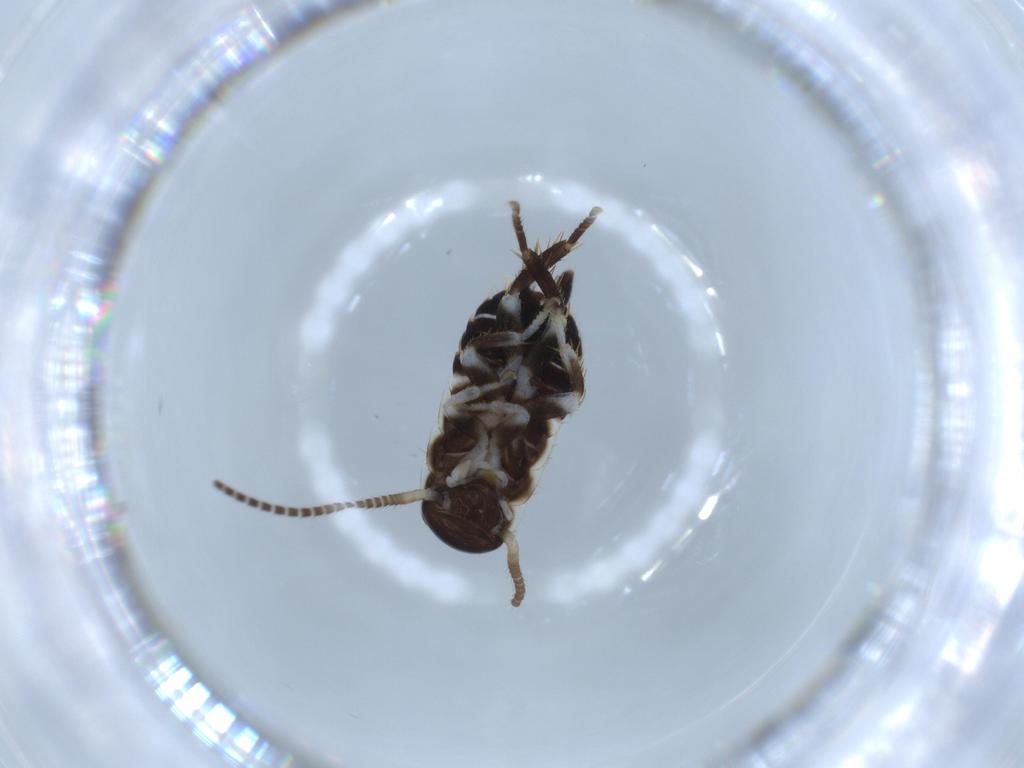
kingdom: Animalia
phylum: Arthropoda
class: Insecta
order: Blattodea
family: Ectobiidae
